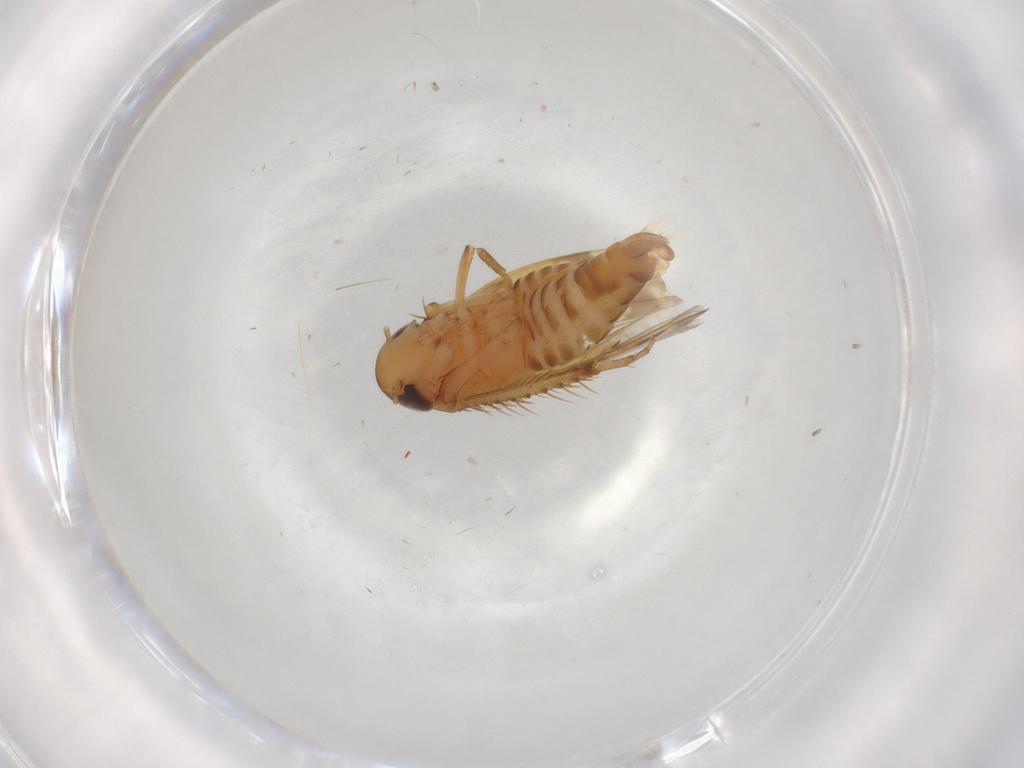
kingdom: Animalia
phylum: Arthropoda
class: Insecta
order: Hemiptera
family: Cicadellidae
